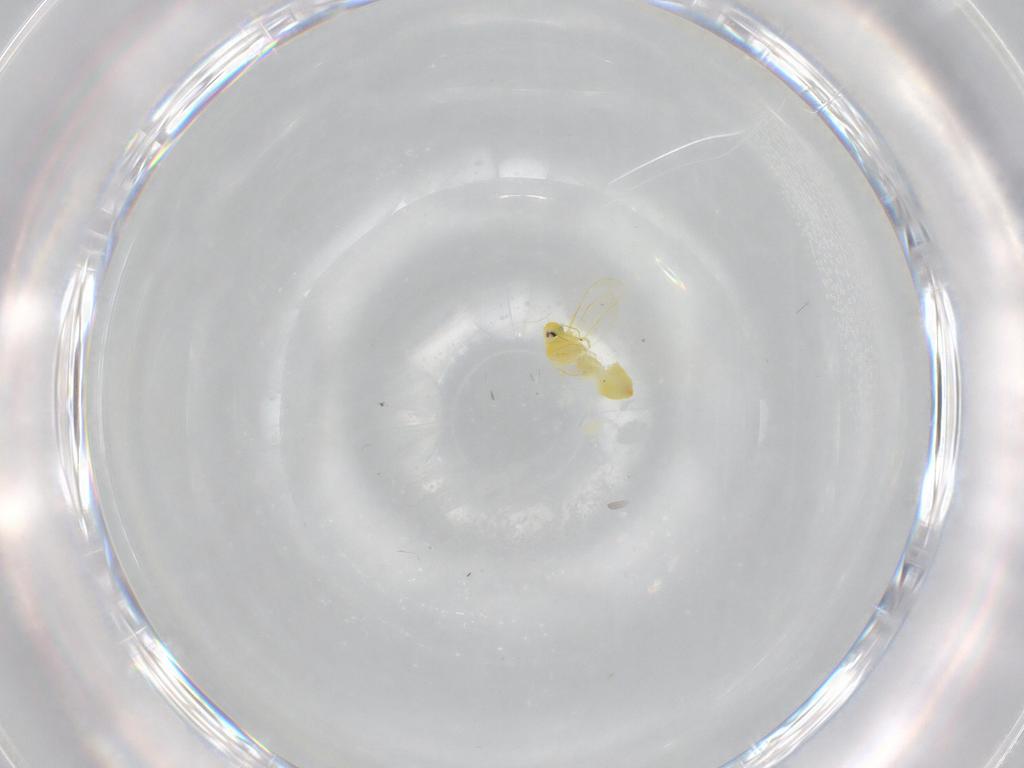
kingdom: Animalia
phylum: Arthropoda
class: Insecta
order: Hemiptera
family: Aleyrodidae
